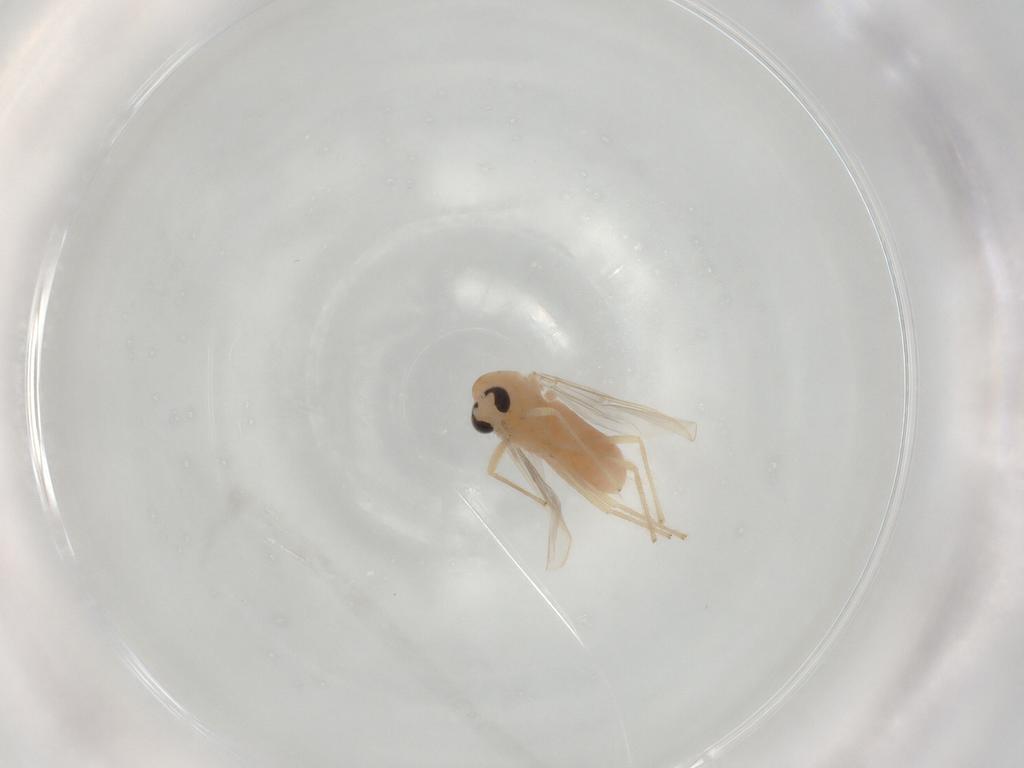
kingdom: Animalia
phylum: Arthropoda
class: Insecta
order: Diptera
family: Chironomidae
